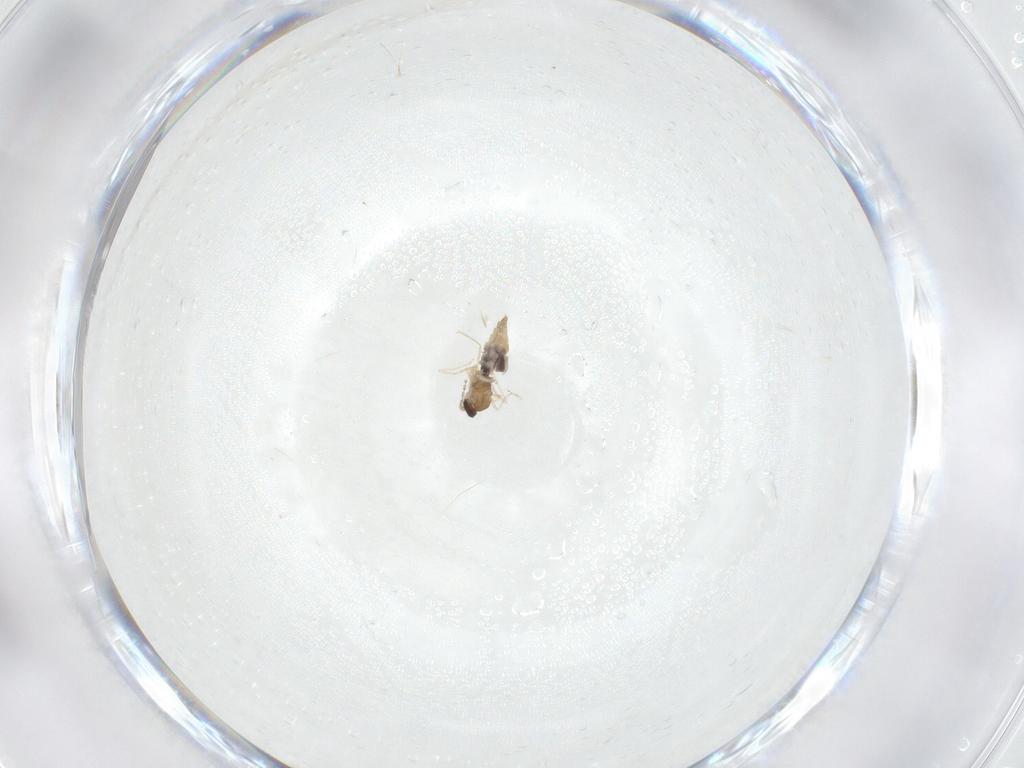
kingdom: Animalia
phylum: Arthropoda
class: Insecta
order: Diptera
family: Cecidomyiidae
